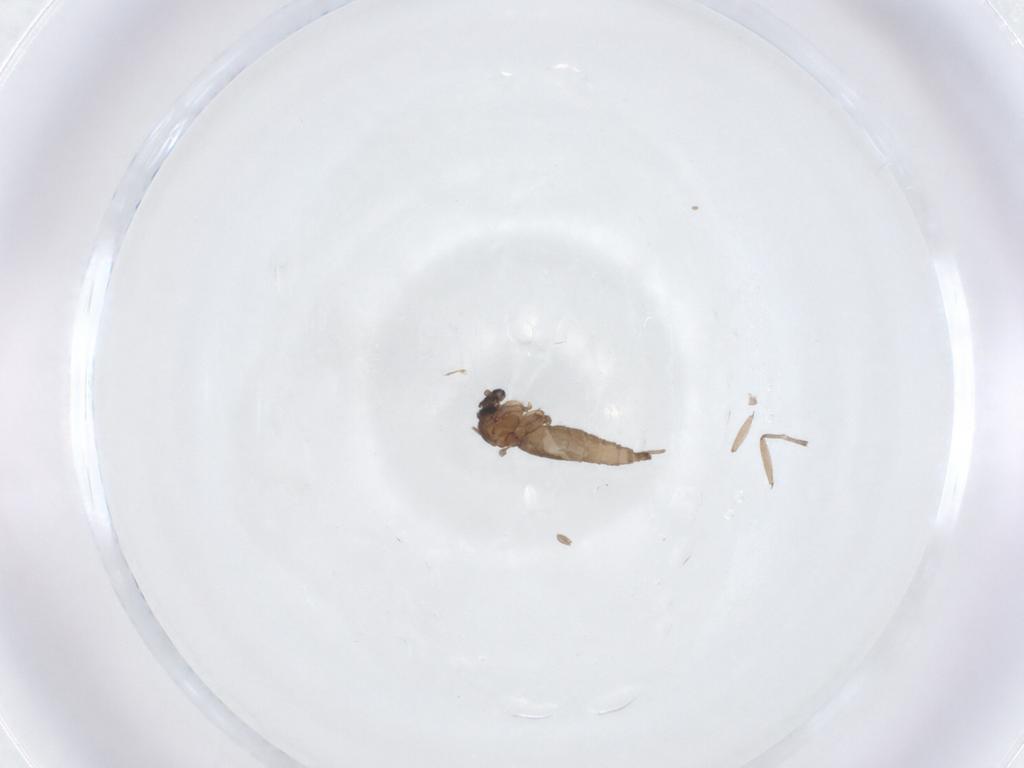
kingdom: Animalia
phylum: Arthropoda
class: Insecta
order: Diptera
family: Sciaridae
